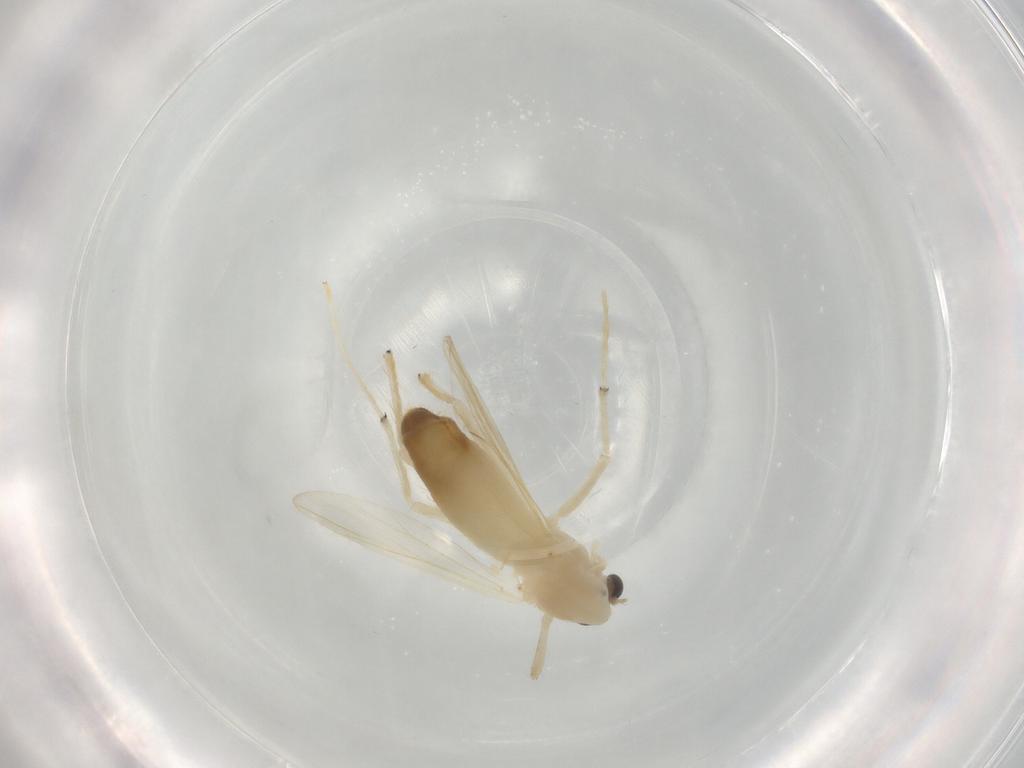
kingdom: Animalia
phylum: Arthropoda
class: Insecta
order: Diptera
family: Chironomidae
